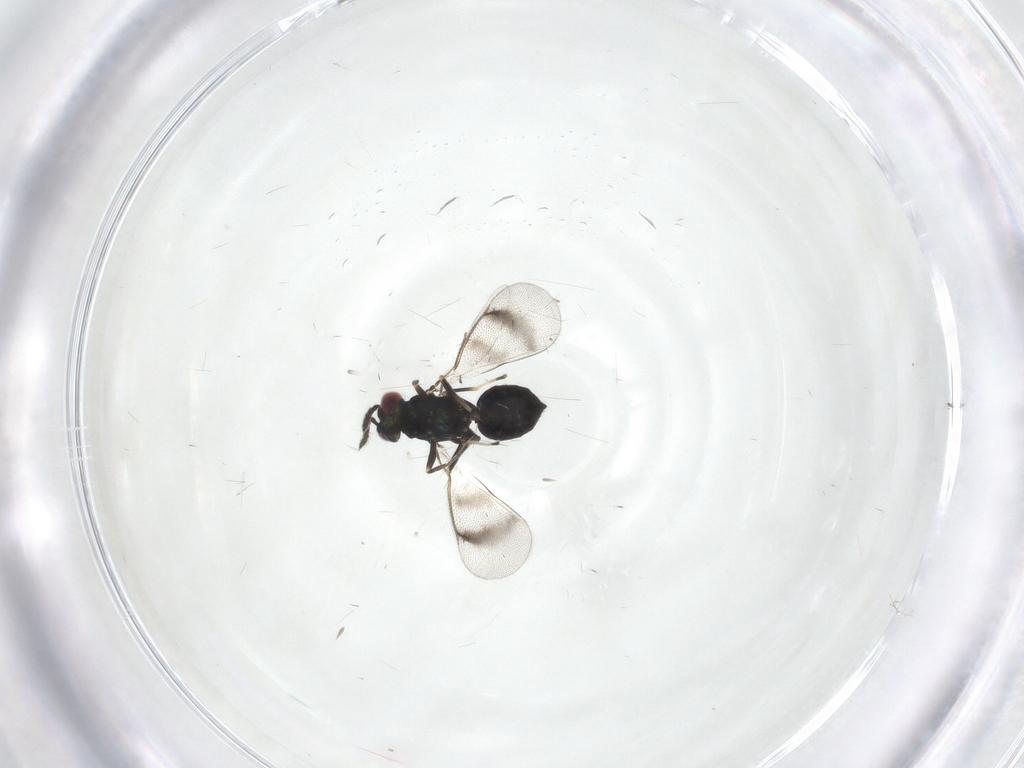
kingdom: Animalia
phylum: Arthropoda
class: Insecta
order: Hymenoptera
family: Eulophidae
